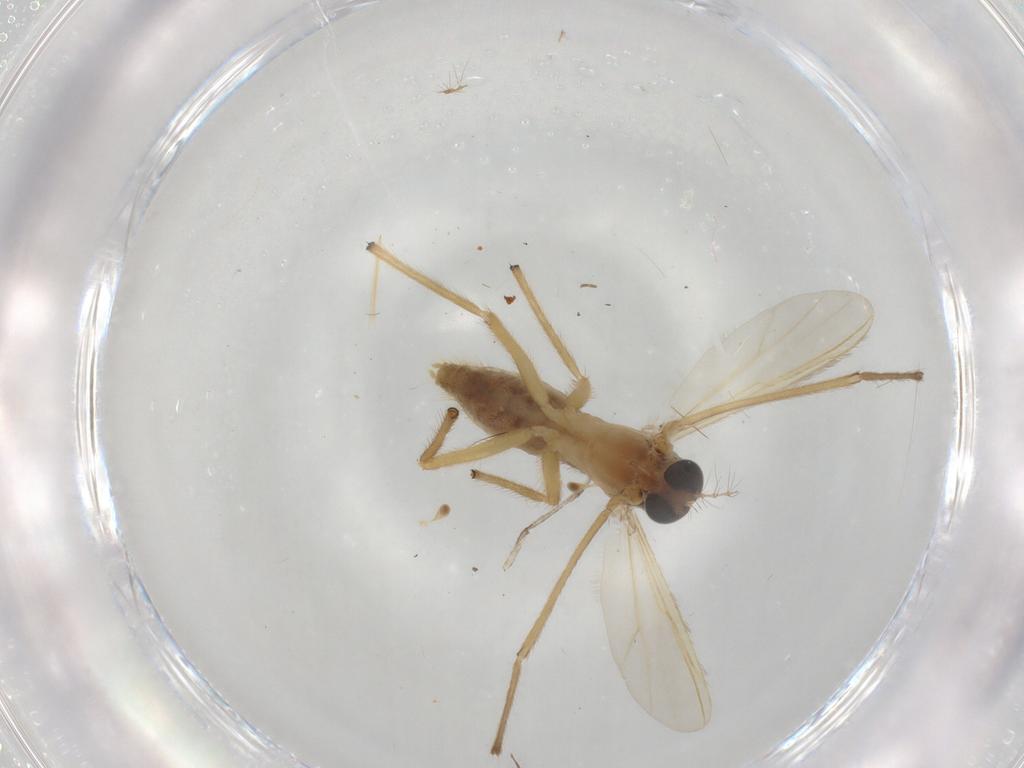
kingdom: Animalia
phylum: Arthropoda
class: Insecta
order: Diptera
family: Chironomidae
